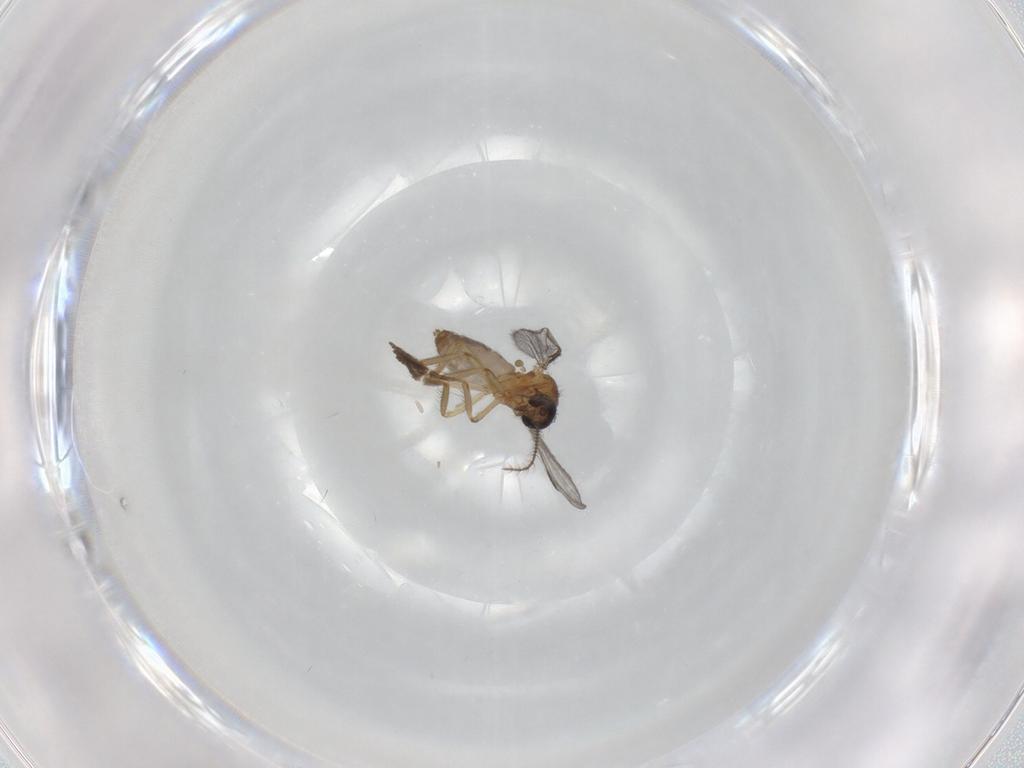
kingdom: Animalia
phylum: Arthropoda
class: Insecta
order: Diptera
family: Ceratopogonidae
